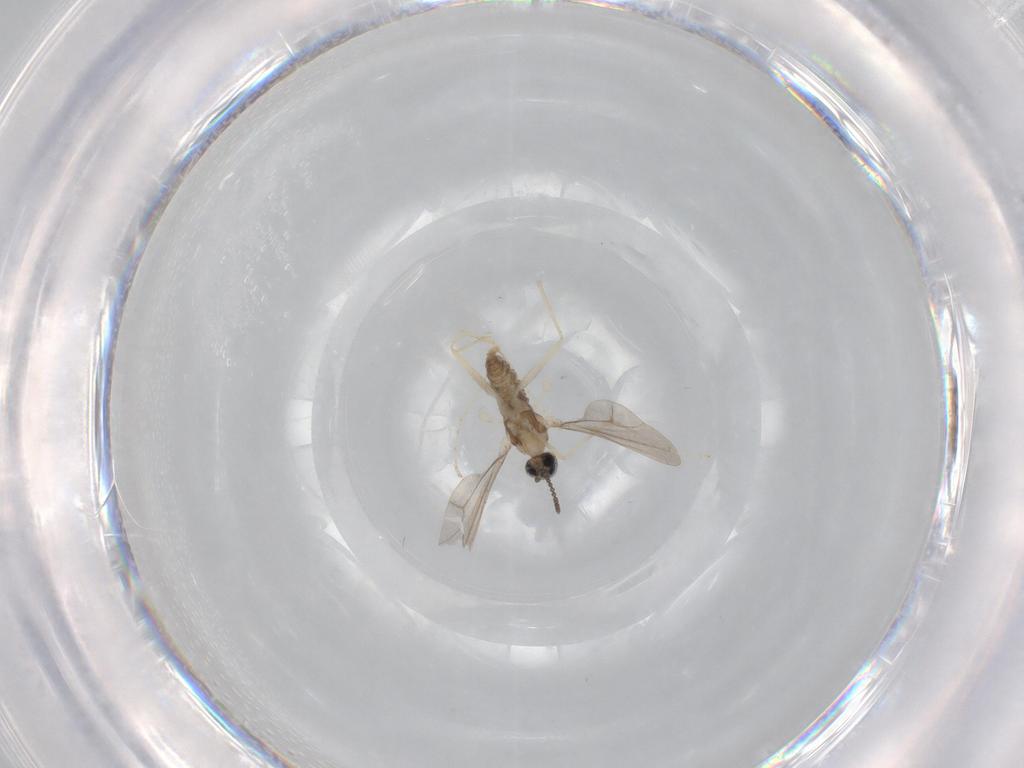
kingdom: Animalia
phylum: Arthropoda
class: Insecta
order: Diptera
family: Cecidomyiidae
